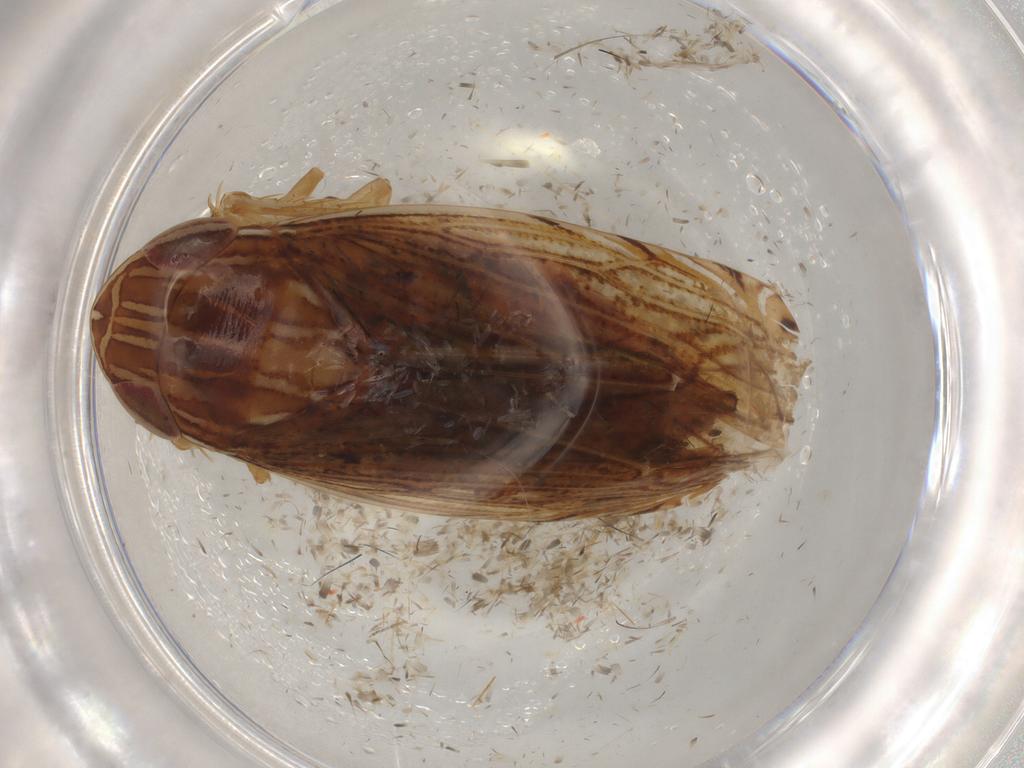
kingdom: Animalia
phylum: Arthropoda
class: Insecta
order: Hemiptera
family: Cicadellidae
